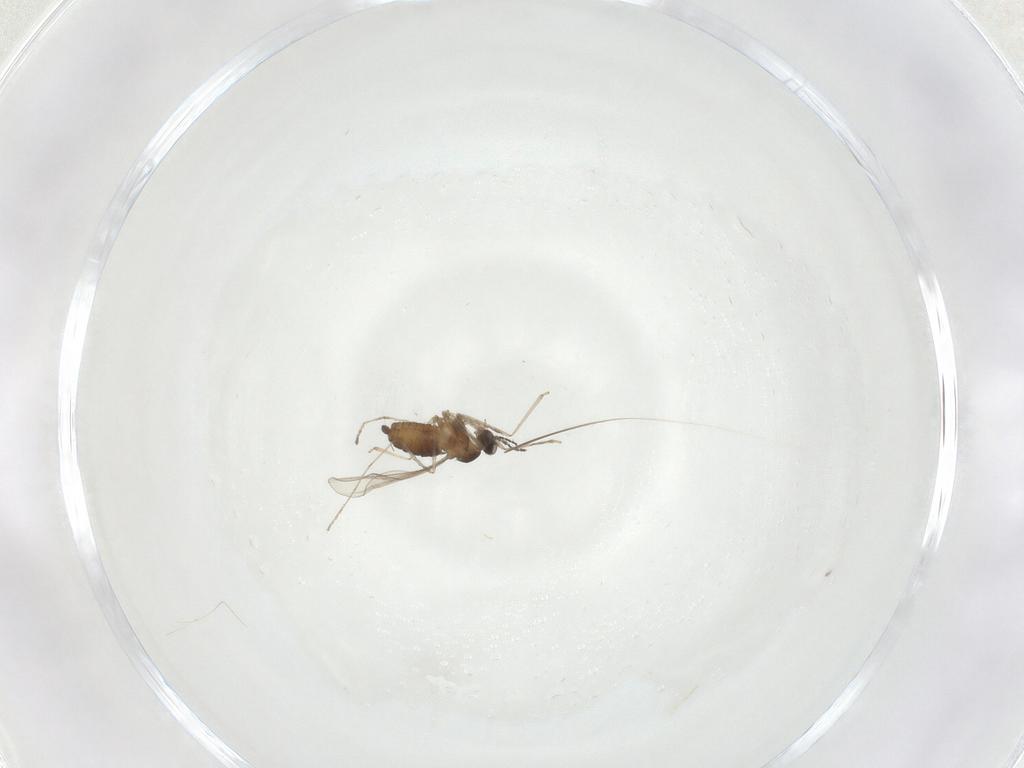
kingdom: Animalia
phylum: Arthropoda
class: Insecta
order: Diptera
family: Cecidomyiidae
